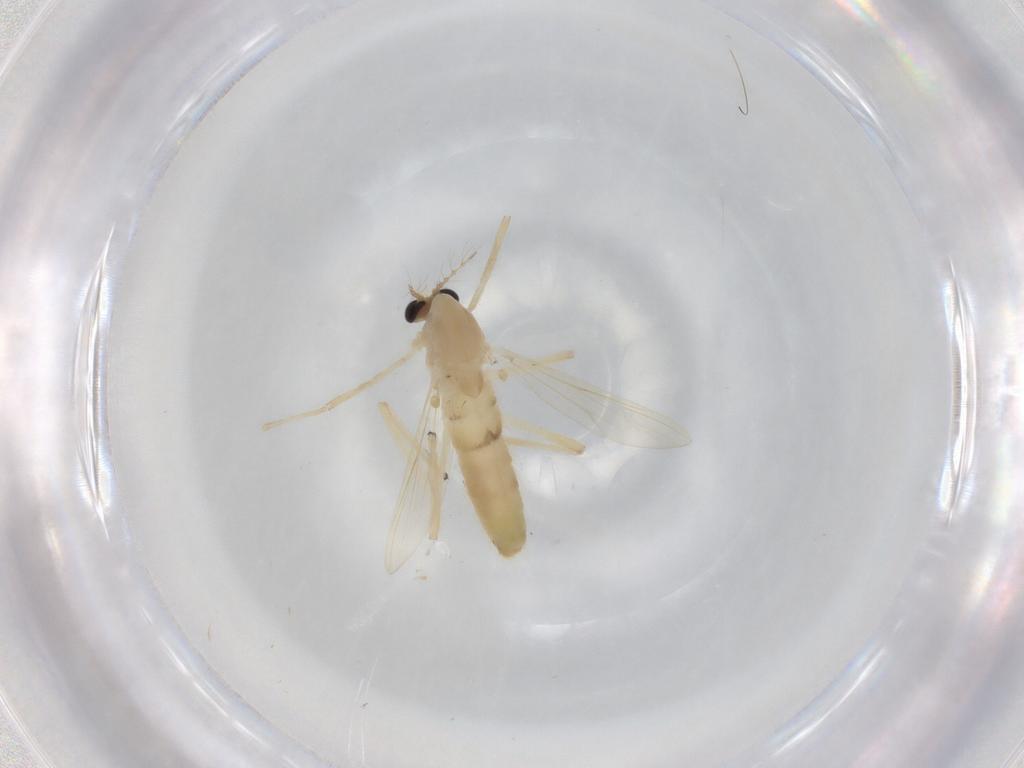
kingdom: Animalia
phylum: Arthropoda
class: Insecta
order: Diptera
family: Chironomidae
